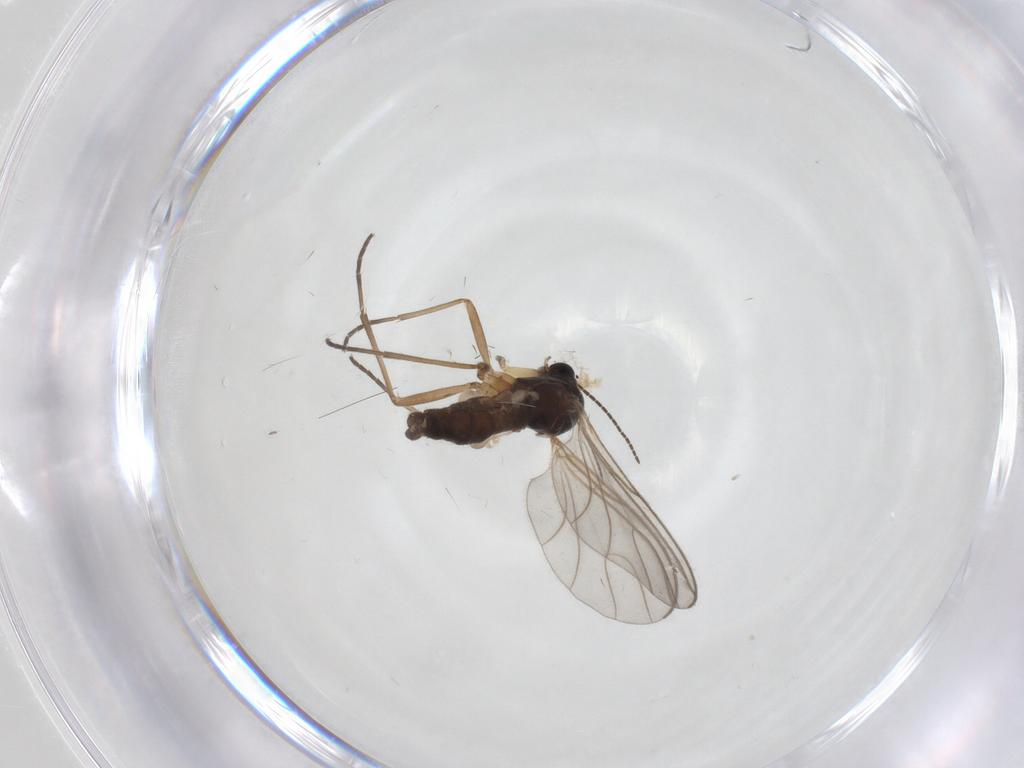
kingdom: Animalia
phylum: Arthropoda
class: Insecta
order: Diptera
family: Sciaridae
